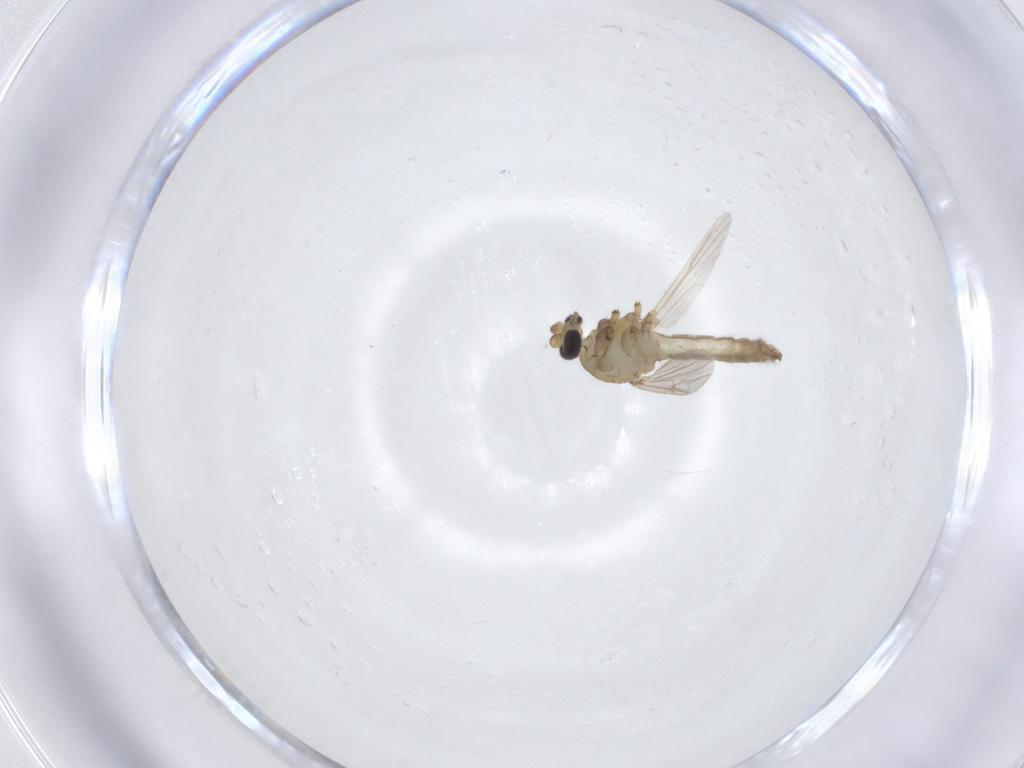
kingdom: Animalia
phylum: Arthropoda
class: Insecta
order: Diptera
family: Ceratopogonidae
